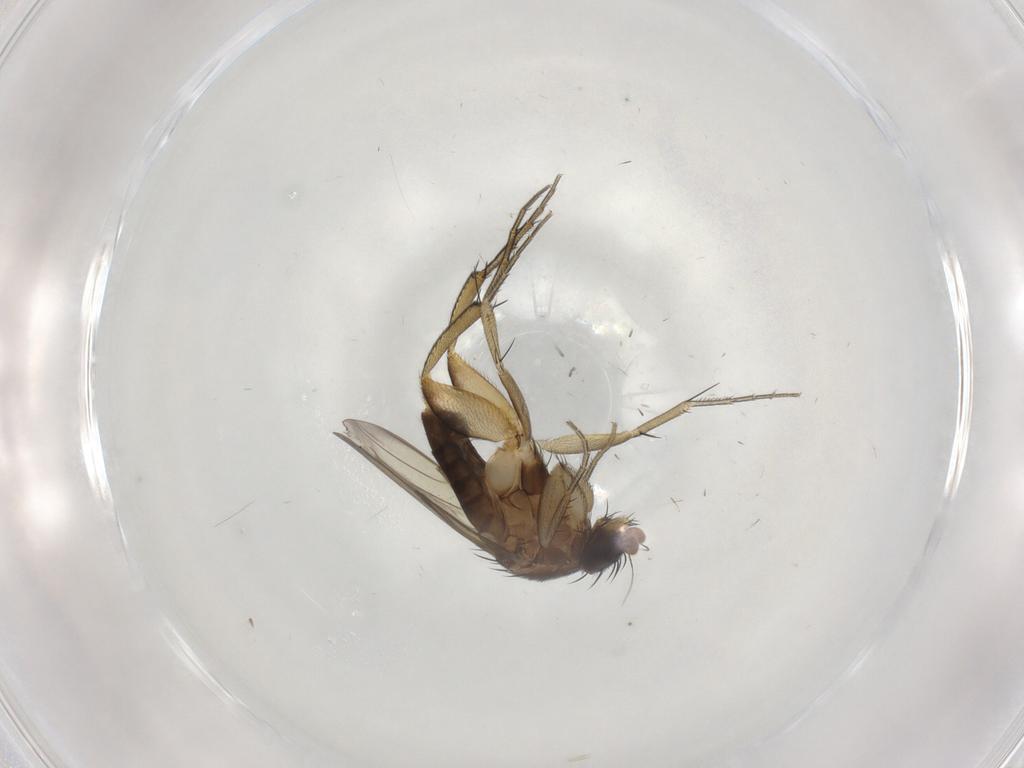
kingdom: Animalia
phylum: Arthropoda
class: Insecta
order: Diptera
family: Phoridae
